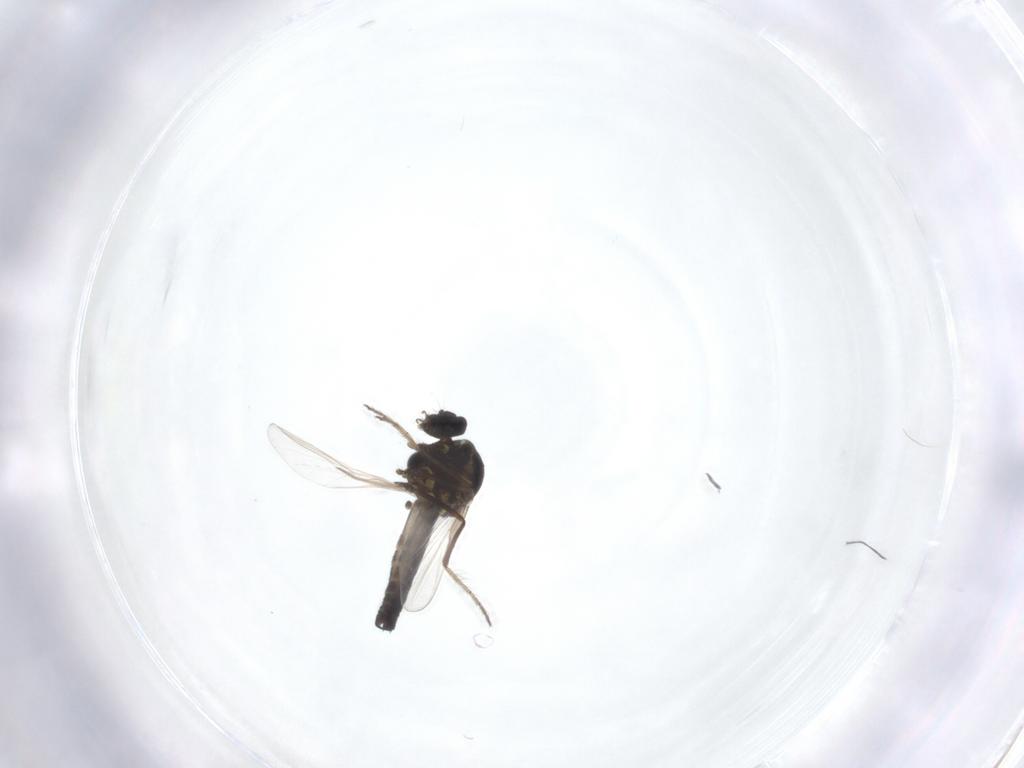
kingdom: Animalia
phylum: Arthropoda
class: Insecta
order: Diptera
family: Ceratopogonidae
